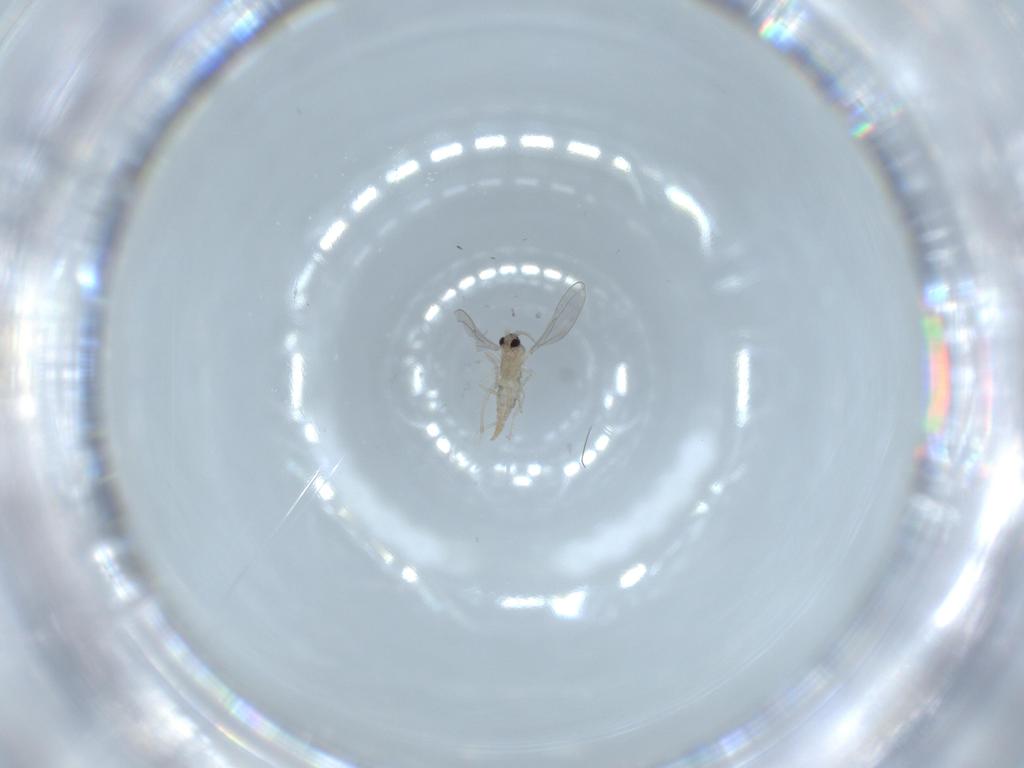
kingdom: Animalia
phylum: Arthropoda
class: Insecta
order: Diptera
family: Cecidomyiidae
